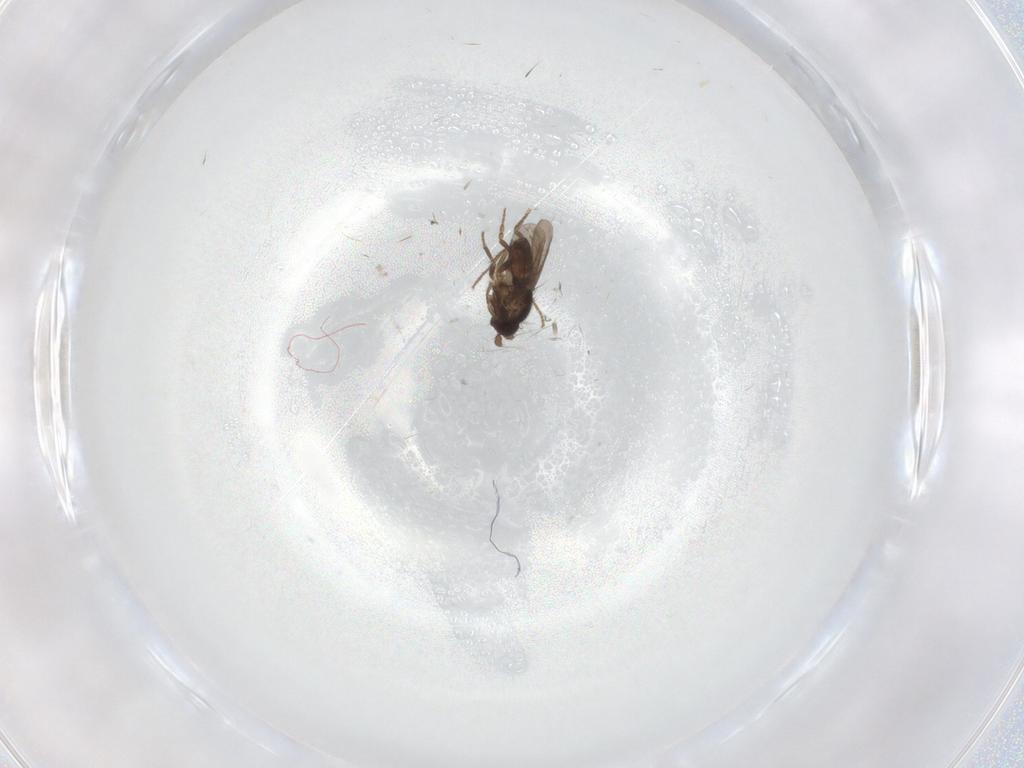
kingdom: Animalia
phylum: Arthropoda
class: Insecta
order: Diptera
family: Sphaeroceridae
